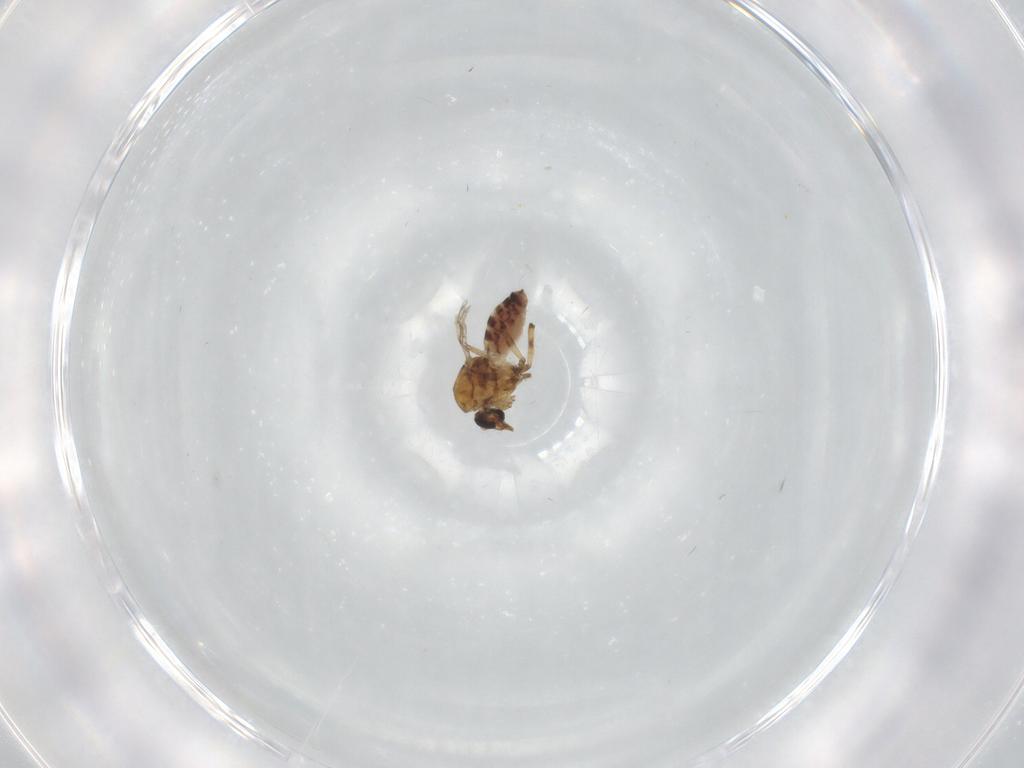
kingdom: Animalia
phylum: Arthropoda
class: Insecta
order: Diptera
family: Ceratopogonidae
